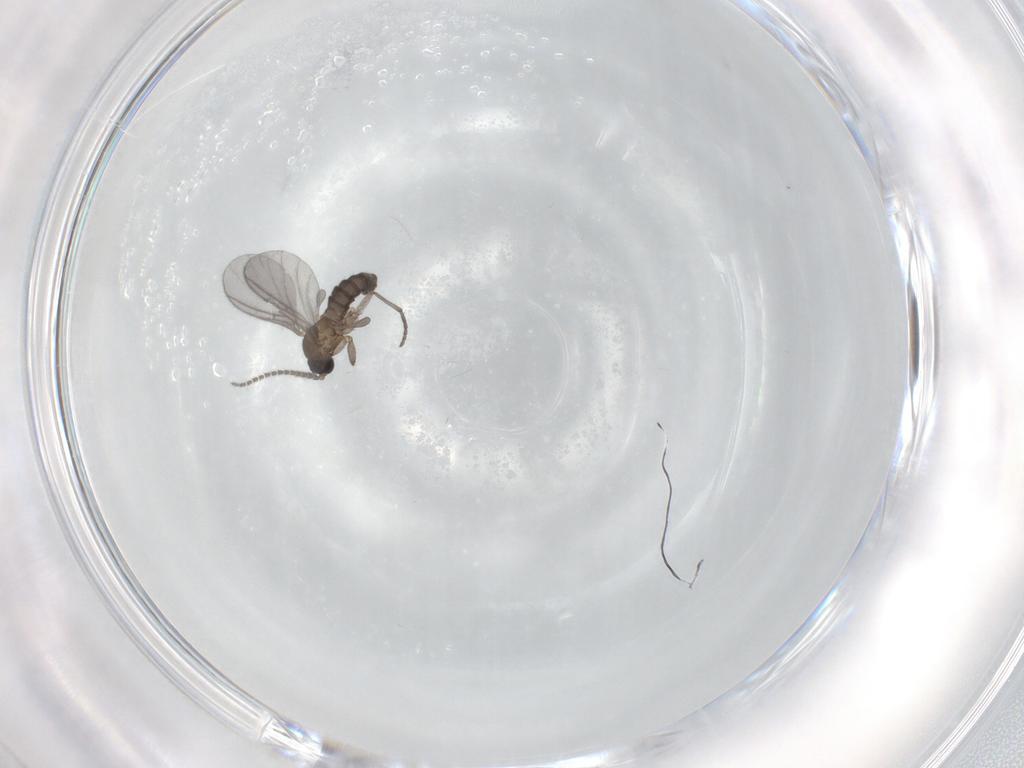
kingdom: Animalia
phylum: Arthropoda
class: Insecta
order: Diptera
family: Sciaridae
